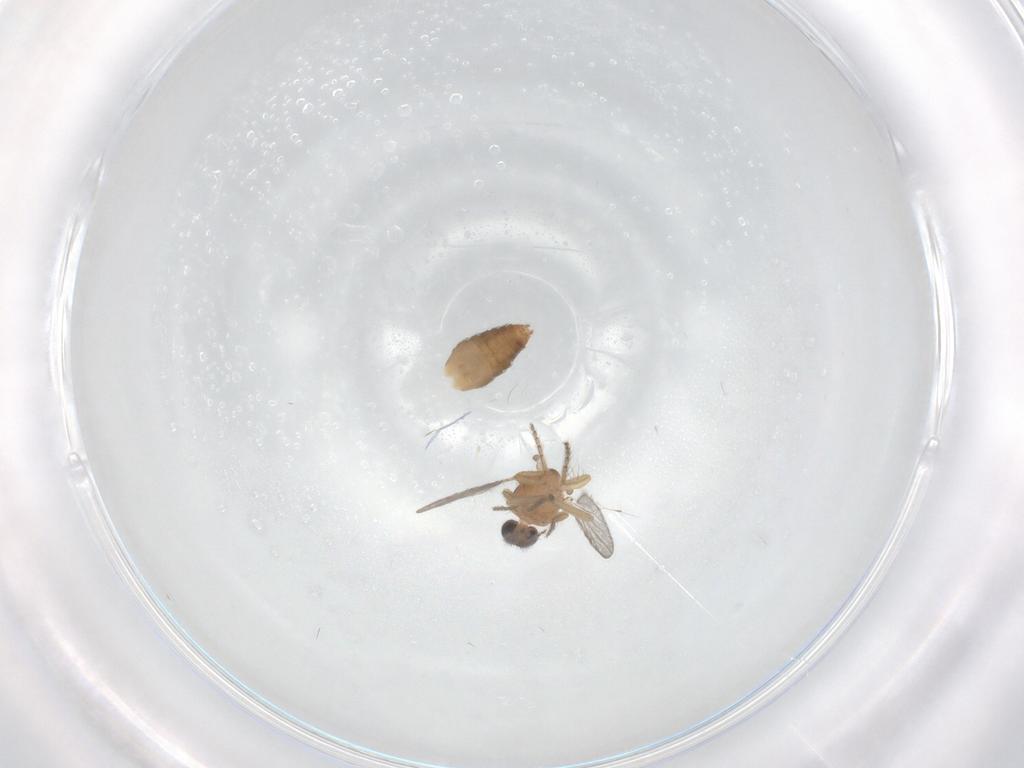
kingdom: Animalia
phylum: Arthropoda
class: Insecta
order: Diptera
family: Ceratopogonidae
